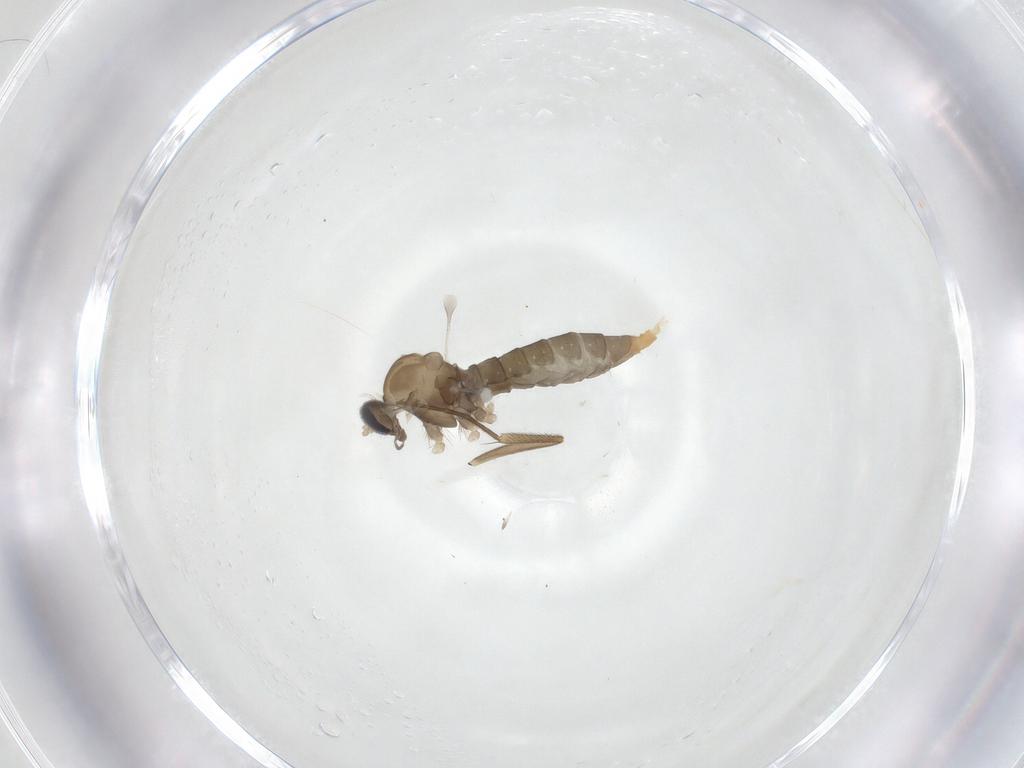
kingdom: Animalia
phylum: Arthropoda
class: Insecta
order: Diptera
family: Cecidomyiidae
